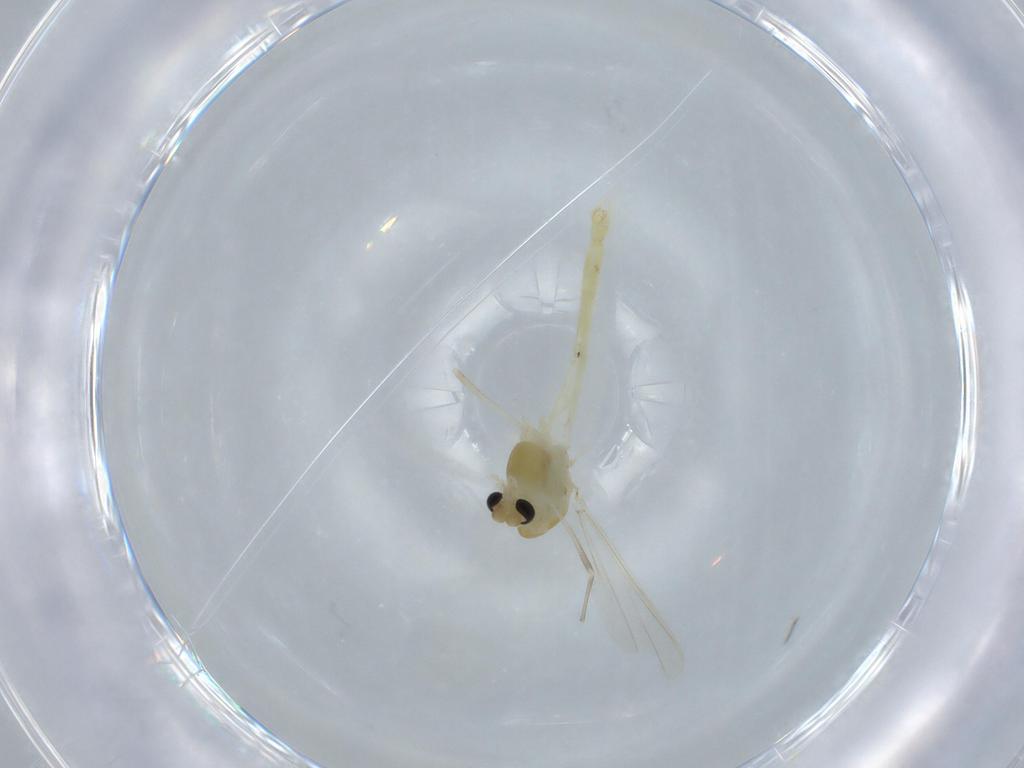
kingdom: Animalia
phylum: Arthropoda
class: Insecta
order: Diptera
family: Chironomidae
